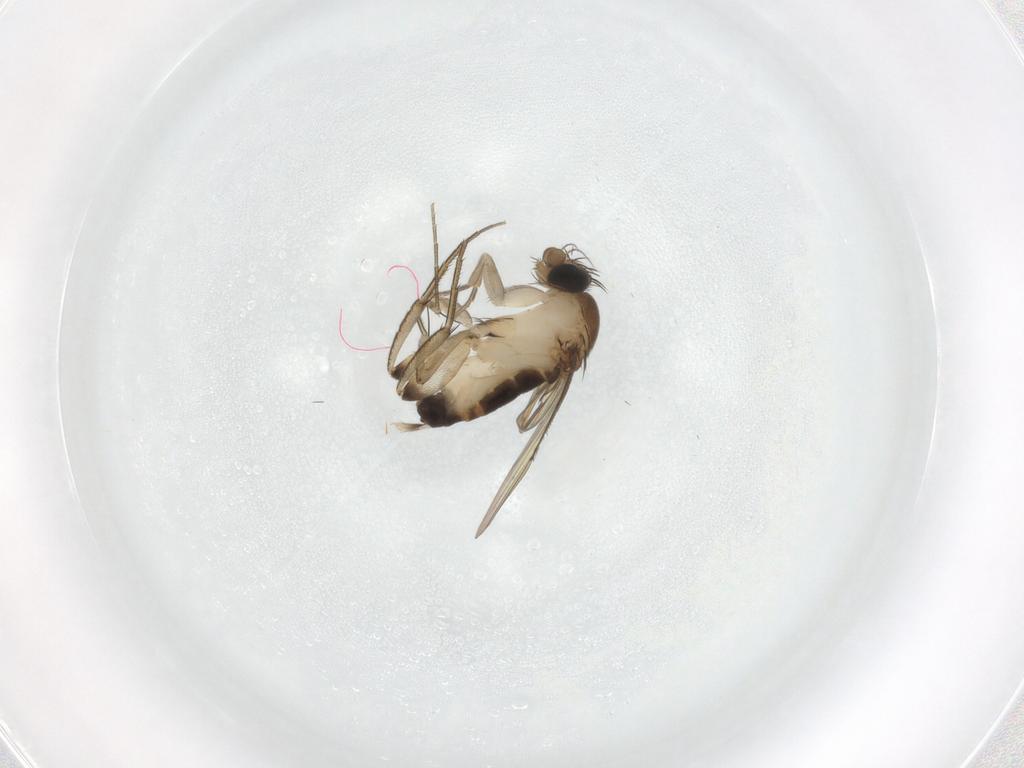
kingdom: Animalia
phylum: Arthropoda
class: Insecta
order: Diptera
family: Phoridae
